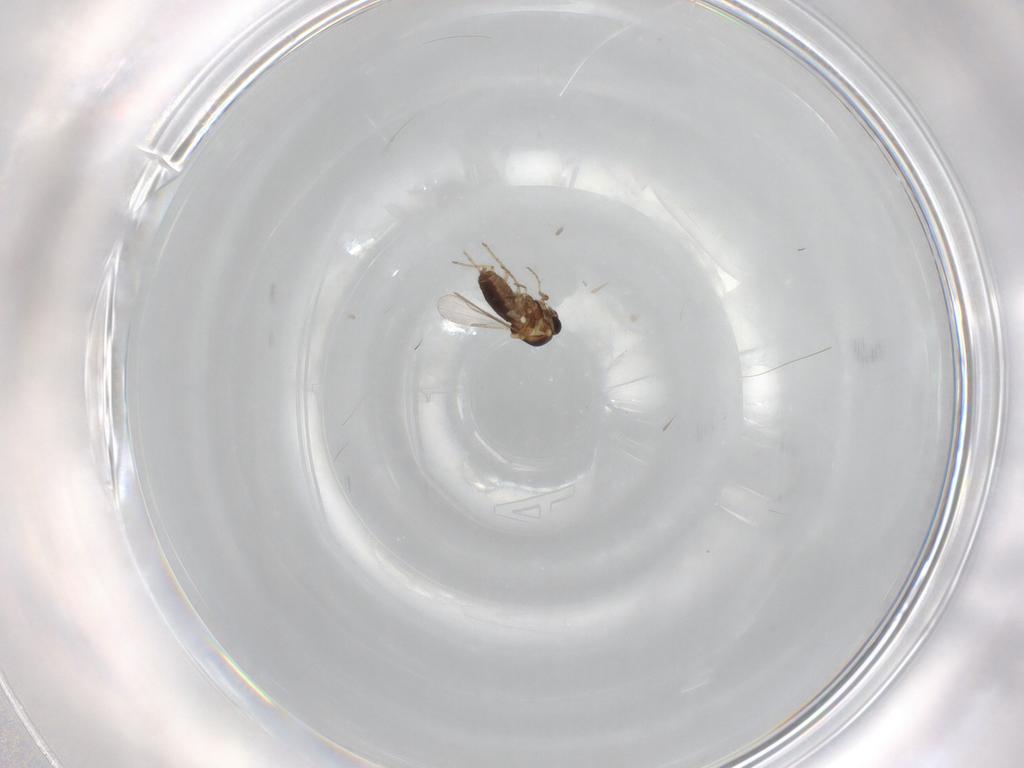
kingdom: Animalia
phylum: Arthropoda
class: Insecta
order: Diptera
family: Ceratopogonidae
